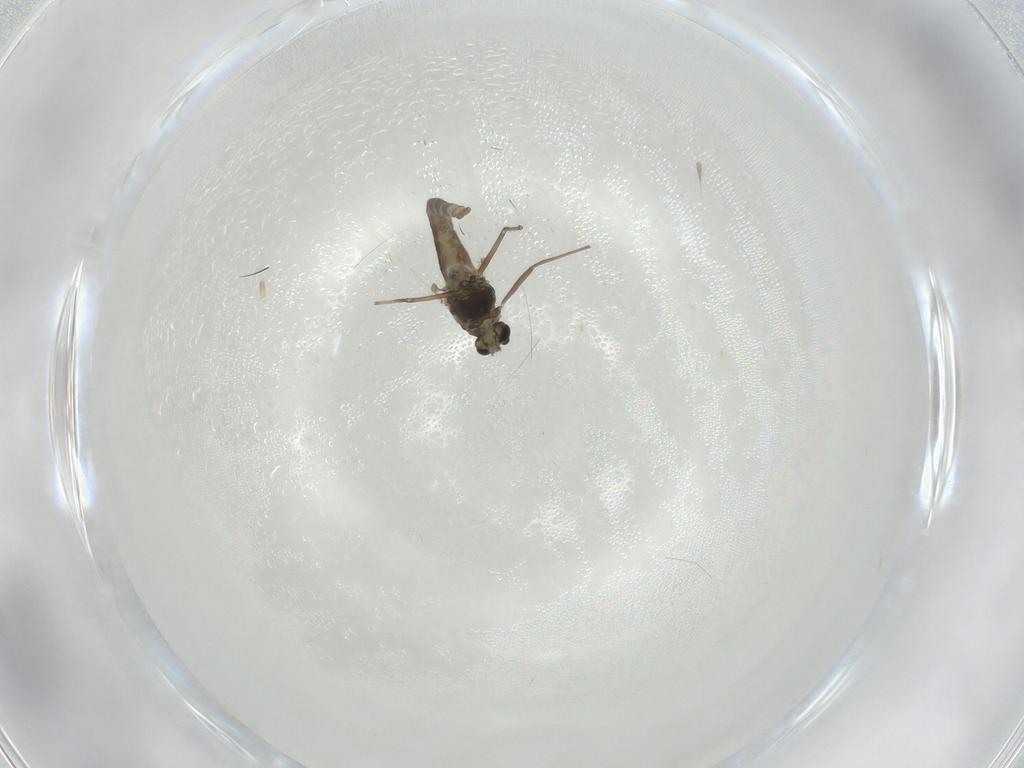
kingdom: Animalia
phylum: Arthropoda
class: Insecta
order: Diptera
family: Chironomidae
